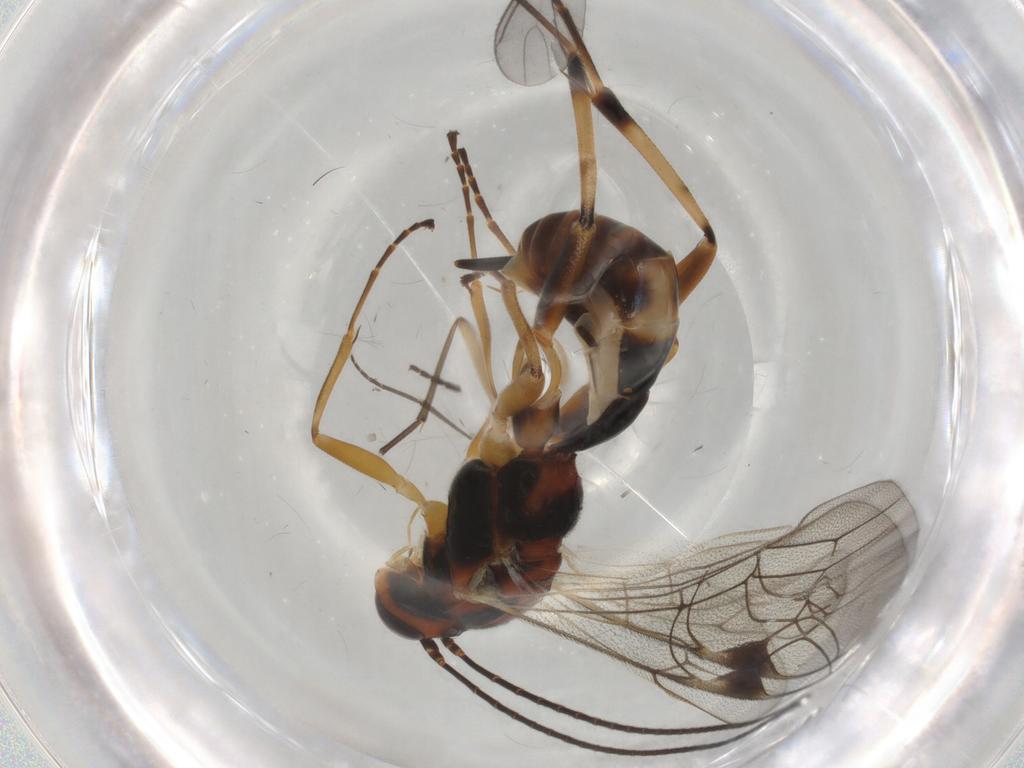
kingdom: Animalia
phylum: Arthropoda
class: Insecta
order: Hymenoptera
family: Ichneumonidae
